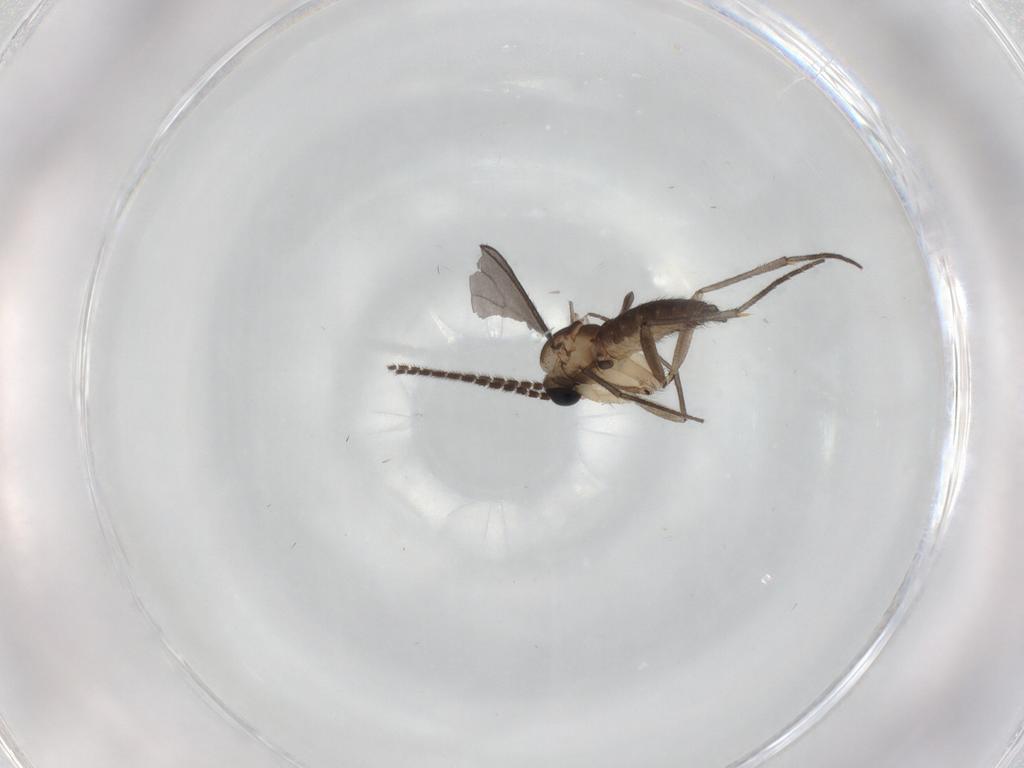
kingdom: Animalia
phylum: Arthropoda
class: Insecta
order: Diptera
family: Sciaridae
